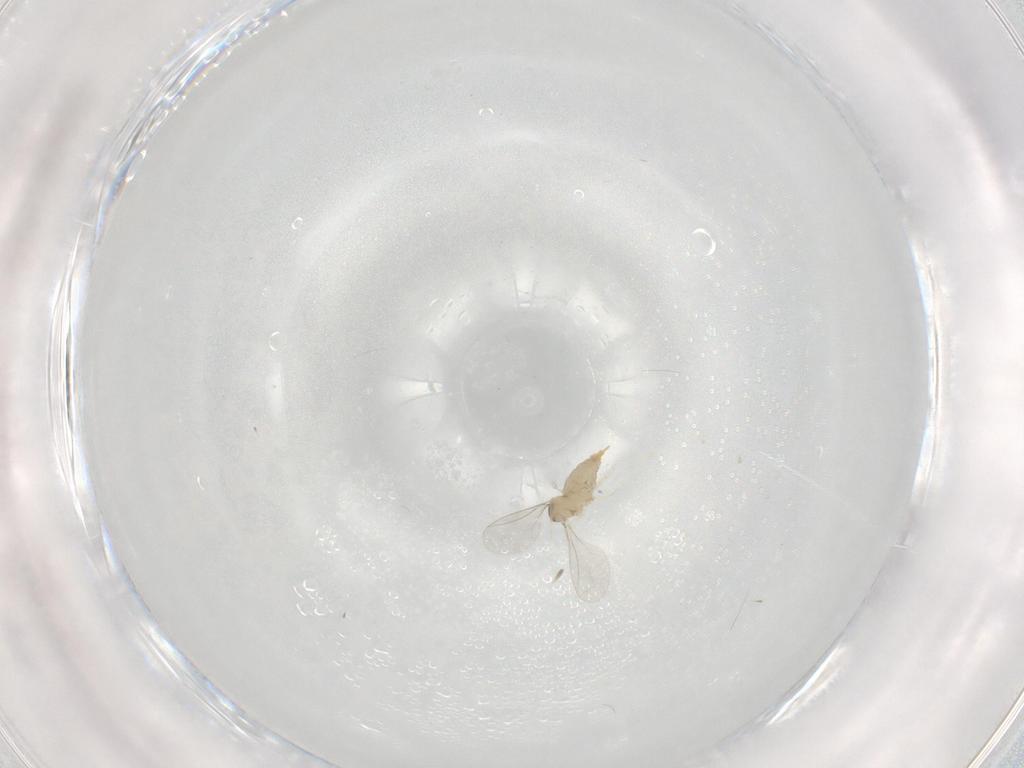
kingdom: Animalia
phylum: Arthropoda
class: Insecta
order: Diptera
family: Cecidomyiidae
